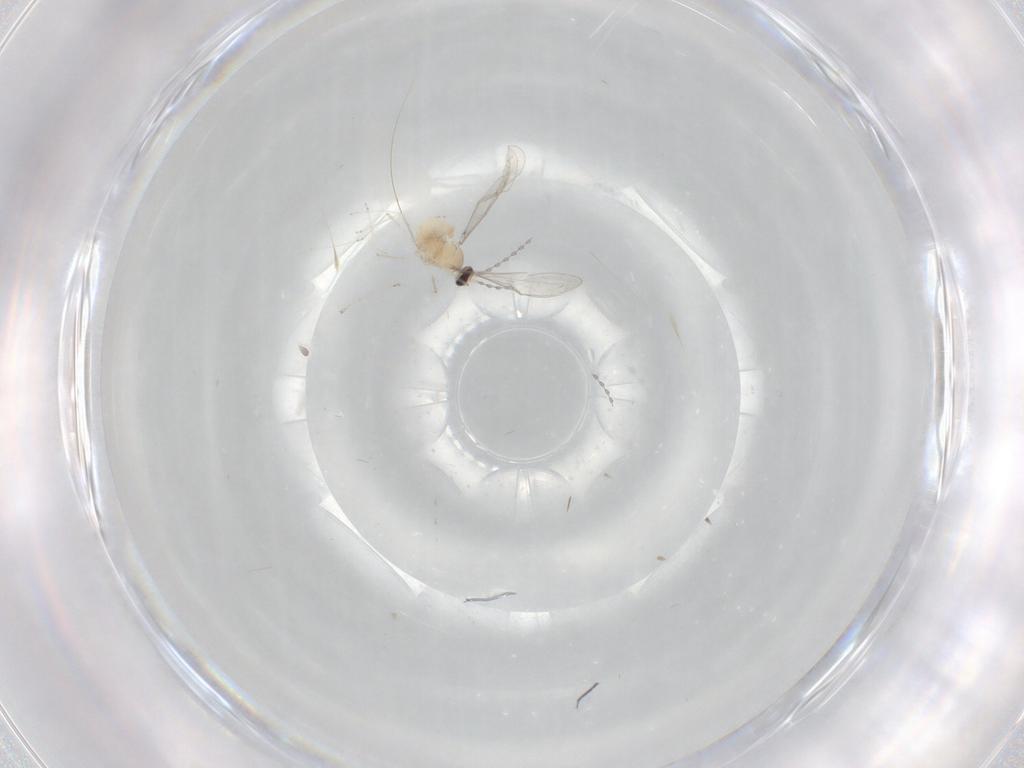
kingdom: Animalia
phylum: Arthropoda
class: Insecta
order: Diptera
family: Cecidomyiidae
